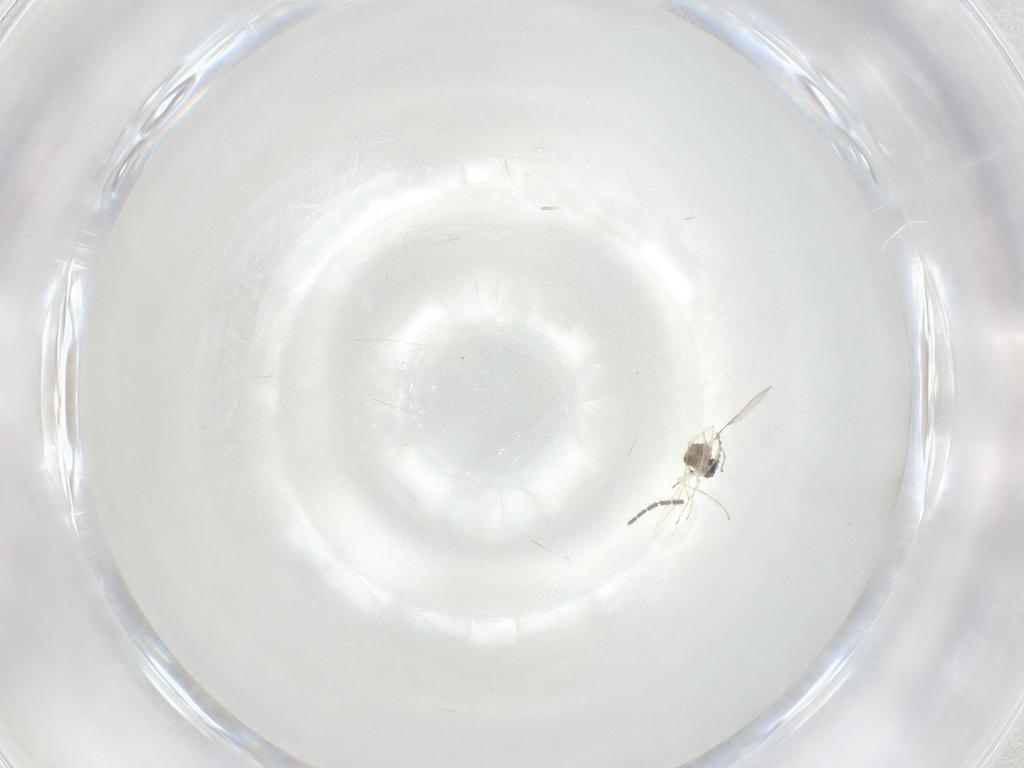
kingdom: Animalia
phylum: Arthropoda
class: Insecta
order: Diptera
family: Cecidomyiidae
